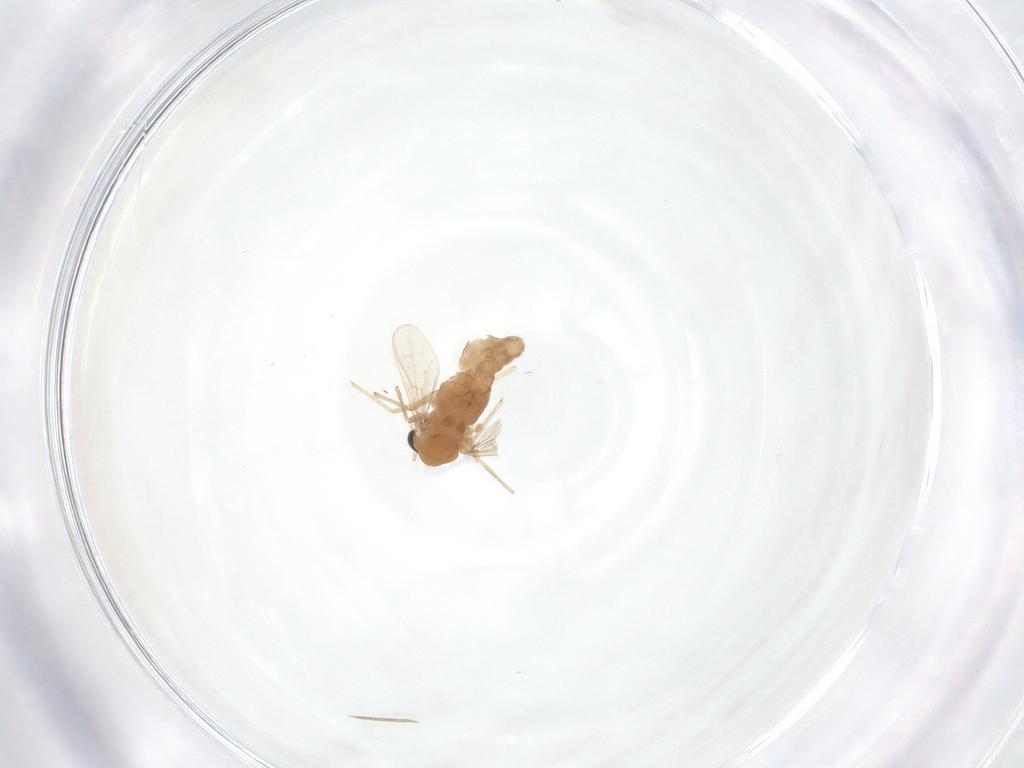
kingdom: Animalia
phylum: Arthropoda
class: Insecta
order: Diptera
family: Chironomidae
